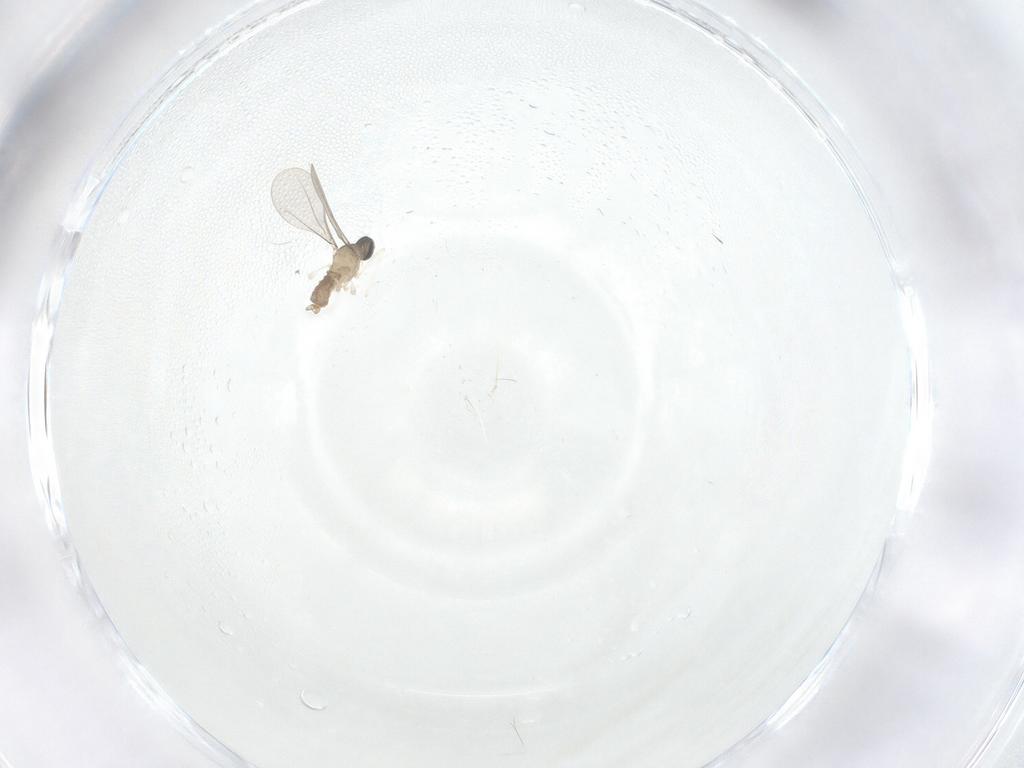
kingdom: Animalia
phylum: Arthropoda
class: Insecta
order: Diptera
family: Cecidomyiidae
